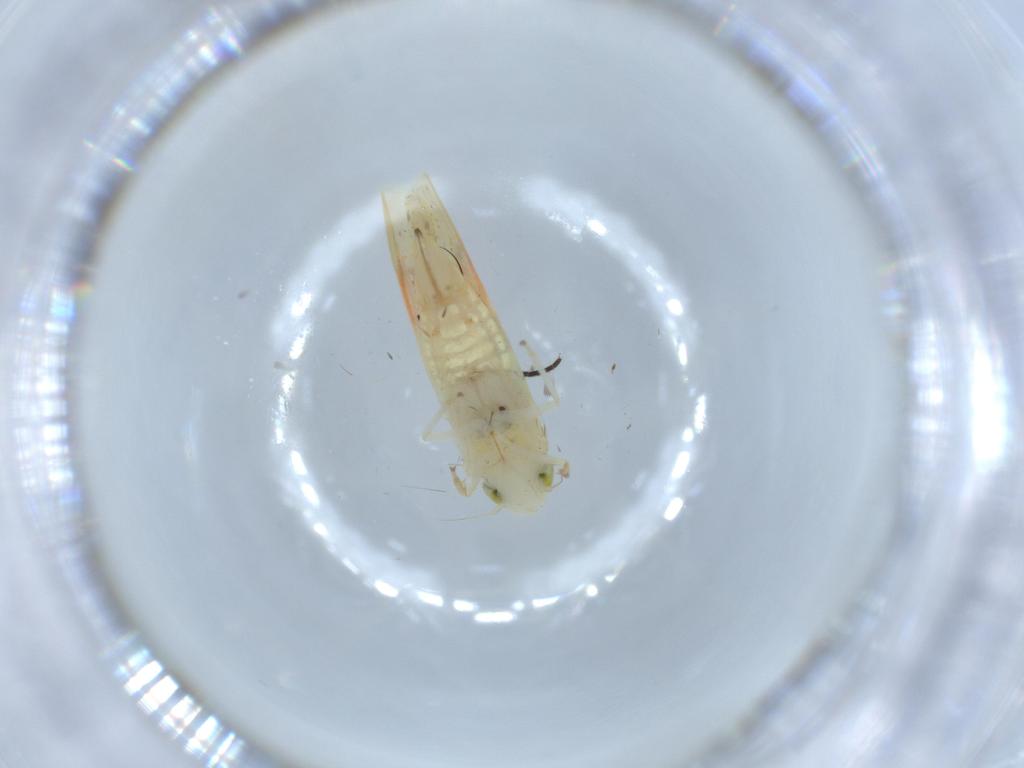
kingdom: Animalia
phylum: Arthropoda
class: Insecta
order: Hemiptera
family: Cicadellidae
